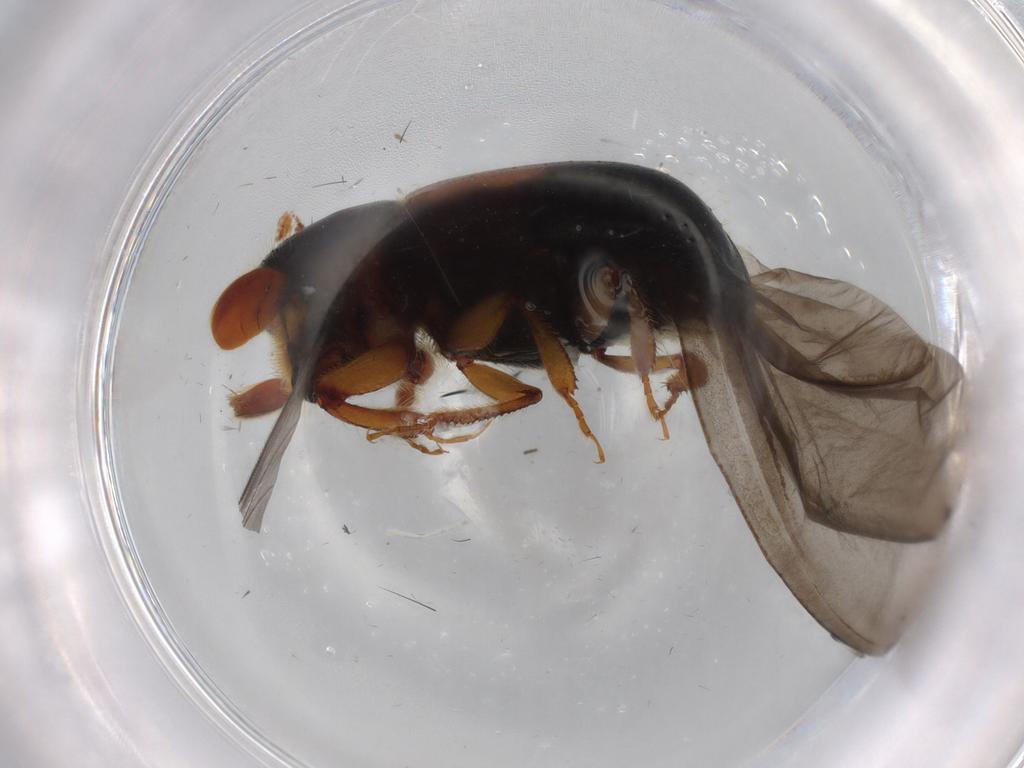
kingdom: Animalia
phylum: Arthropoda
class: Insecta
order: Coleoptera
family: Curculionidae
